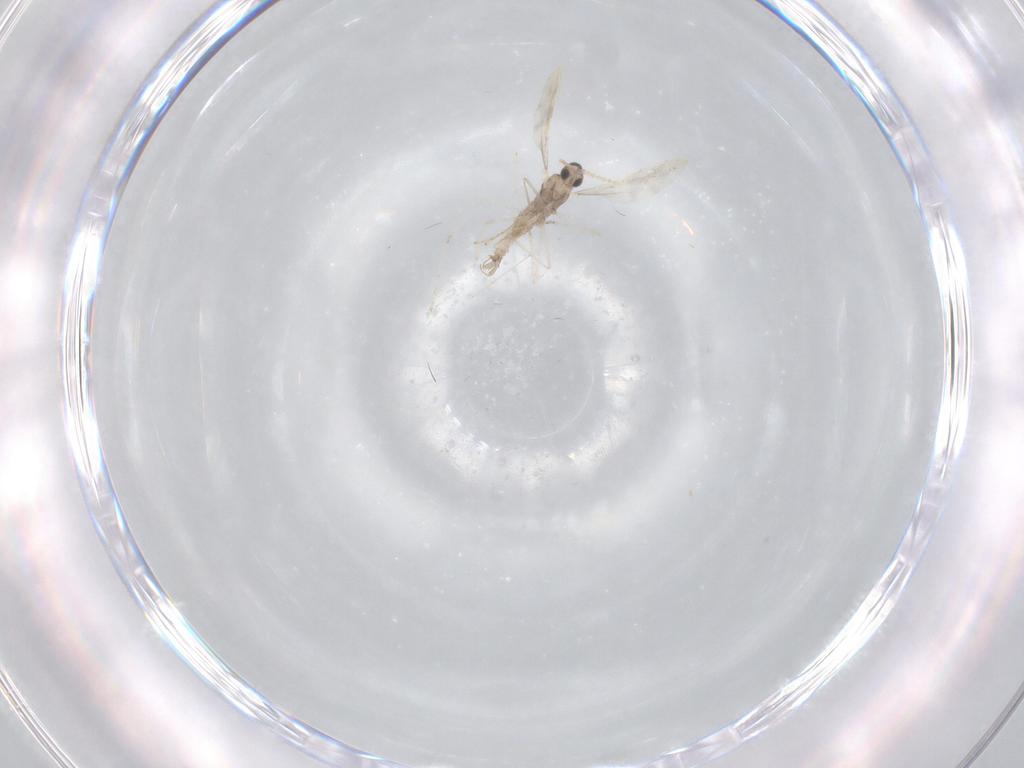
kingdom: Animalia
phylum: Arthropoda
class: Insecta
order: Diptera
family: Cecidomyiidae
